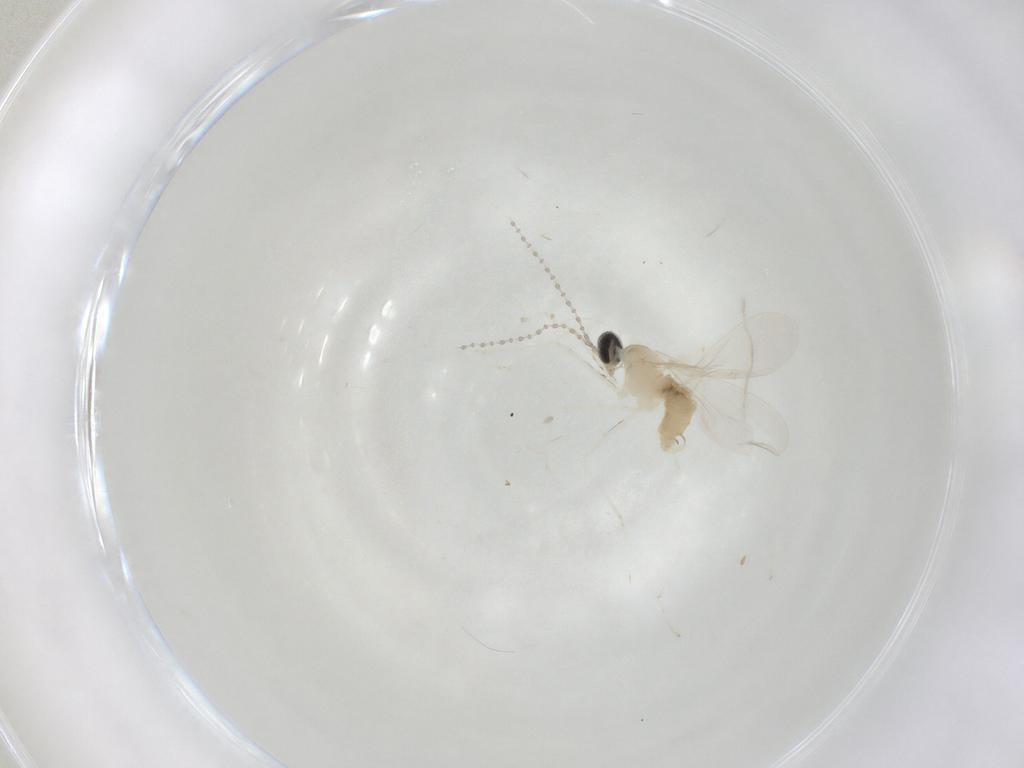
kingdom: Animalia
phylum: Arthropoda
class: Insecta
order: Diptera
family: Cecidomyiidae
